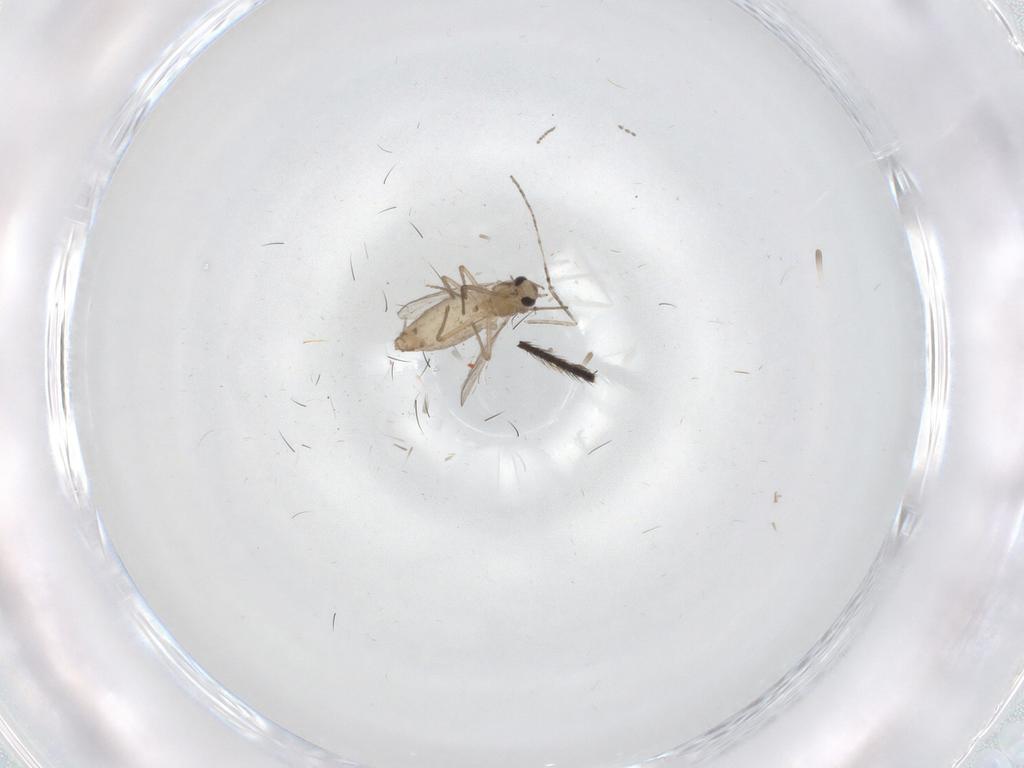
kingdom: Animalia
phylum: Arthropoda
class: Insecta
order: Diptera
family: Chironomidae
